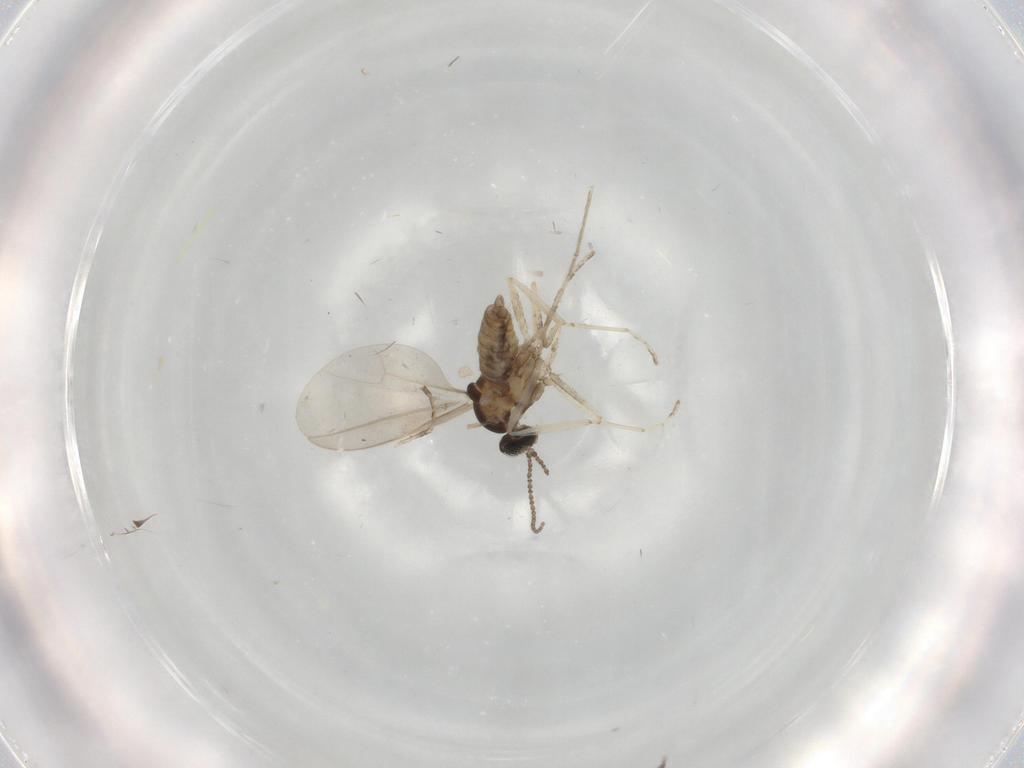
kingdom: Animalia
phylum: Arthropoda
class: Insecta
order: Diptera
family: Cecidomyiidae
